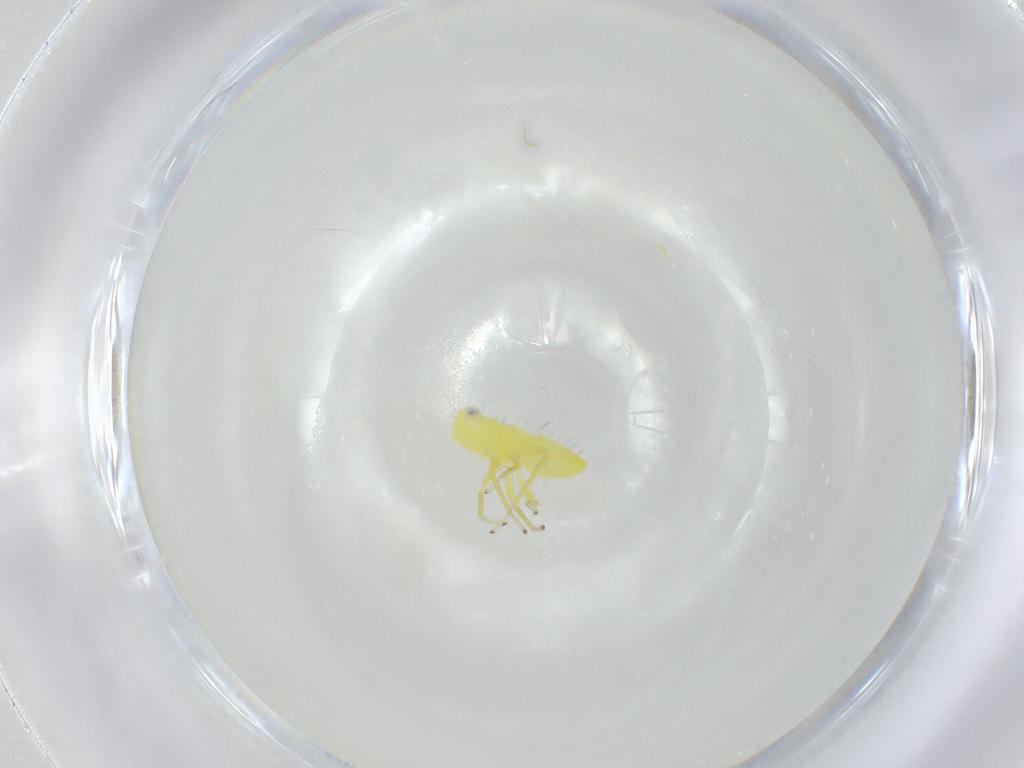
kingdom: Animalia
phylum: Arthropoda
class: Insecta
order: Hemiptera
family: Cicadellidae
